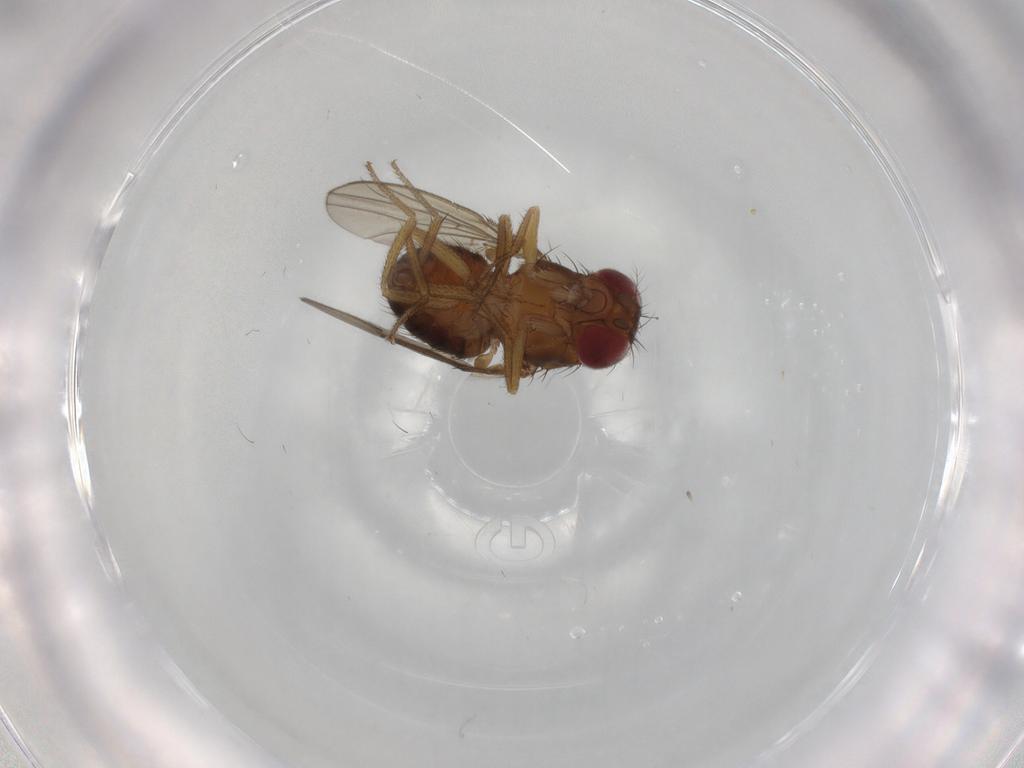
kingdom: Animalia
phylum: Arthropoda
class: Insecta
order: Diptera
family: Drosophilidae
